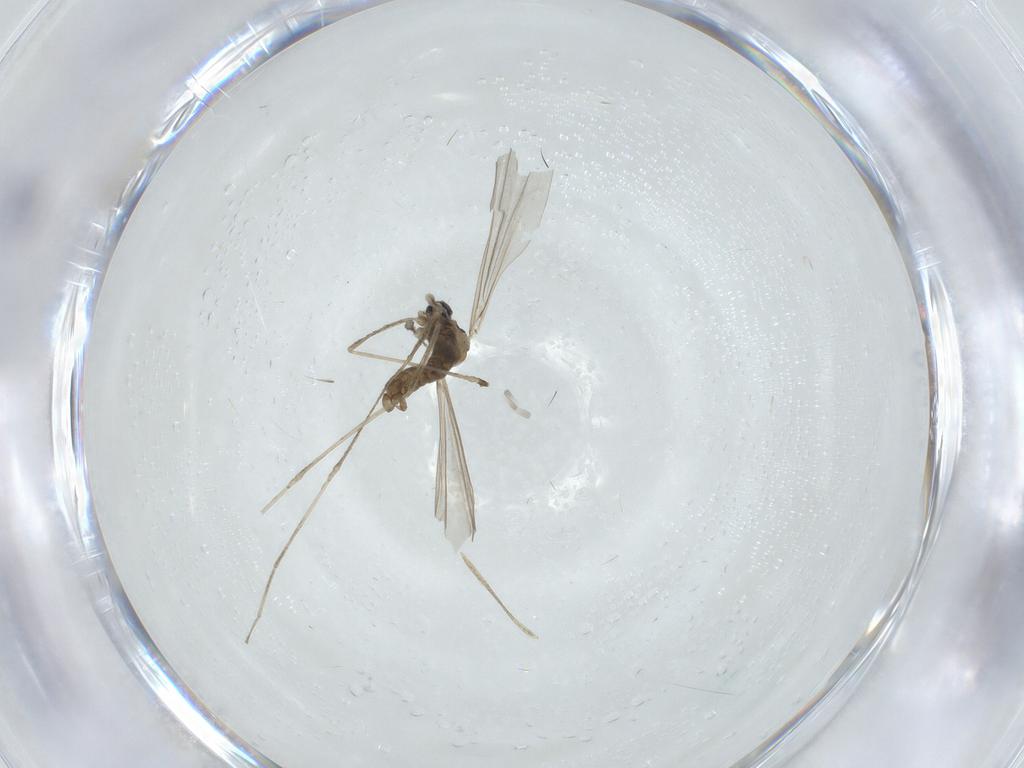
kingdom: Animalia
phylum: Arthropoda
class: Insecta
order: Diptera
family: Cecidomyiidae
